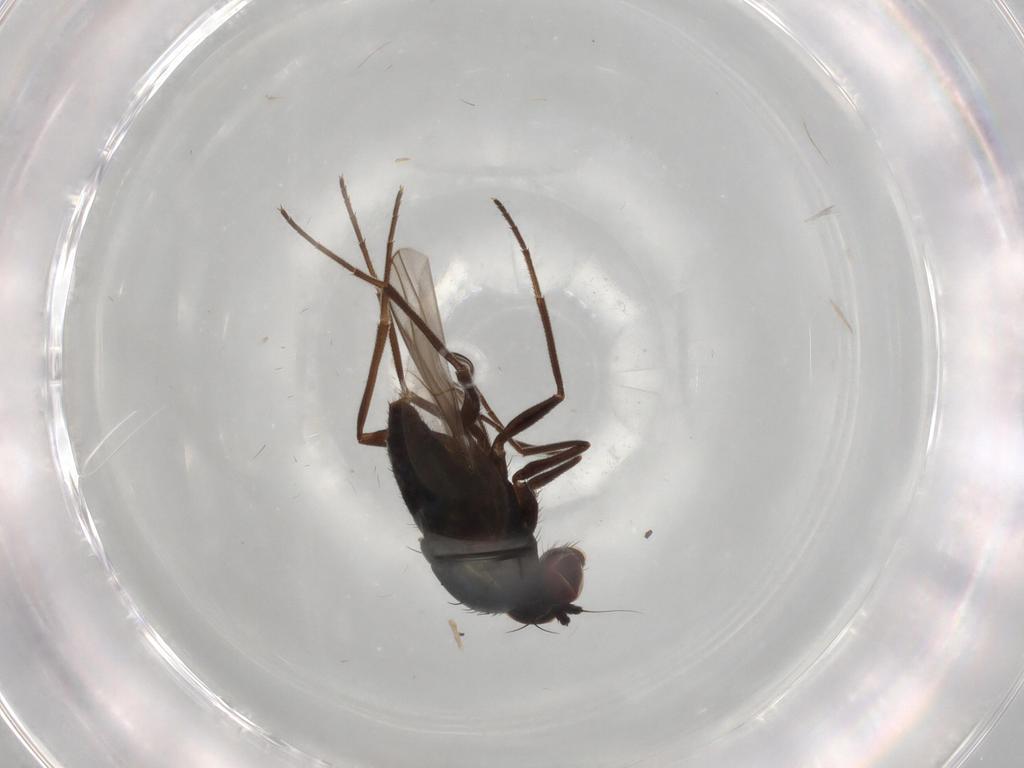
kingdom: Animalia
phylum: Arthropoda
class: Insecta
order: Diptera
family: Dolichopodidae
